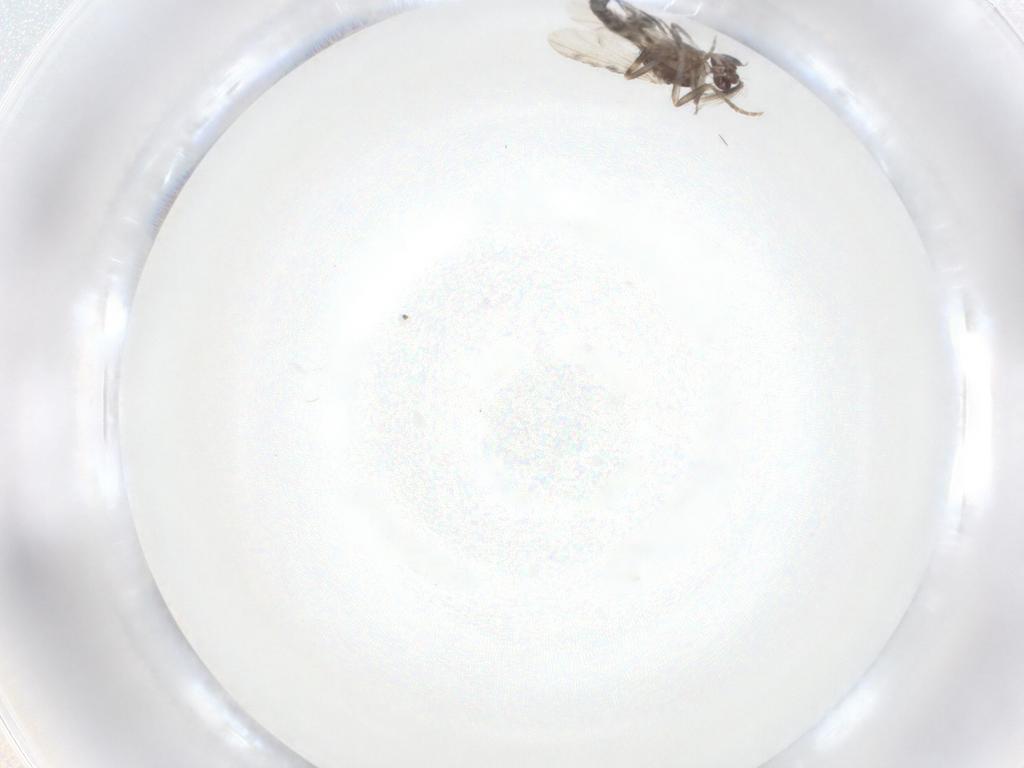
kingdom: Animalia
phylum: Arthropoda
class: Insecta
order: Diptera
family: Ceratopogonidae
